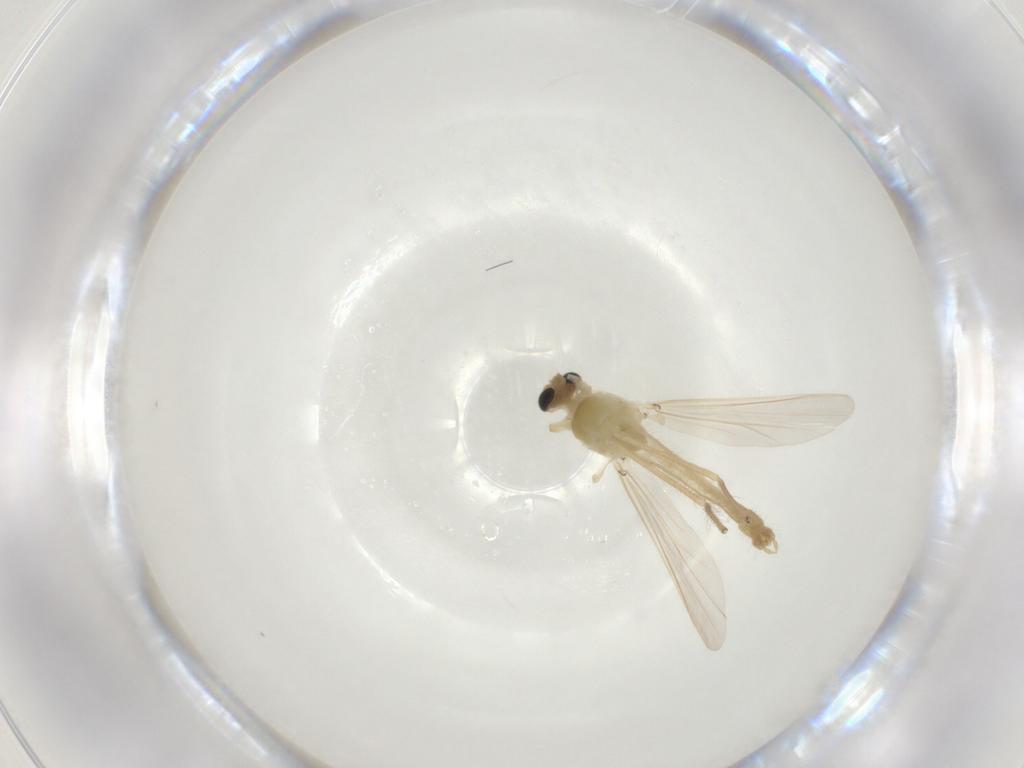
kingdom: Animalia
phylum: Arthropoda
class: Insecta
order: Diptera
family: Chironomidae
